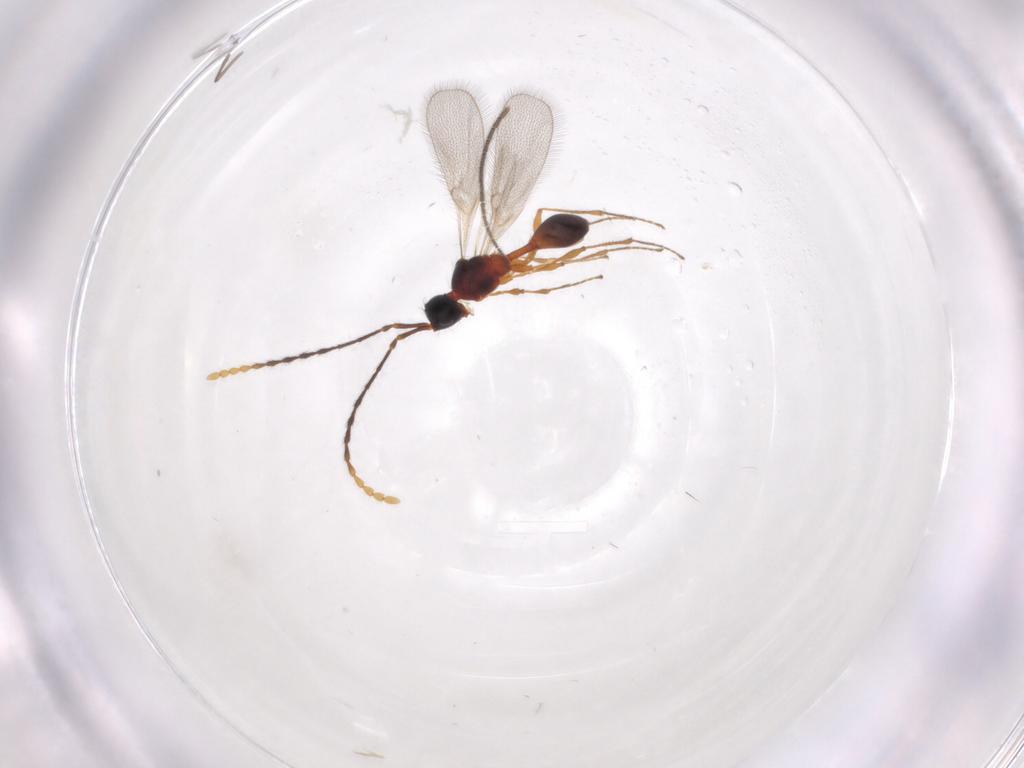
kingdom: Animalia
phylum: Arthropoda
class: Insecta
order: Hymenoptera
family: Diapriidae
